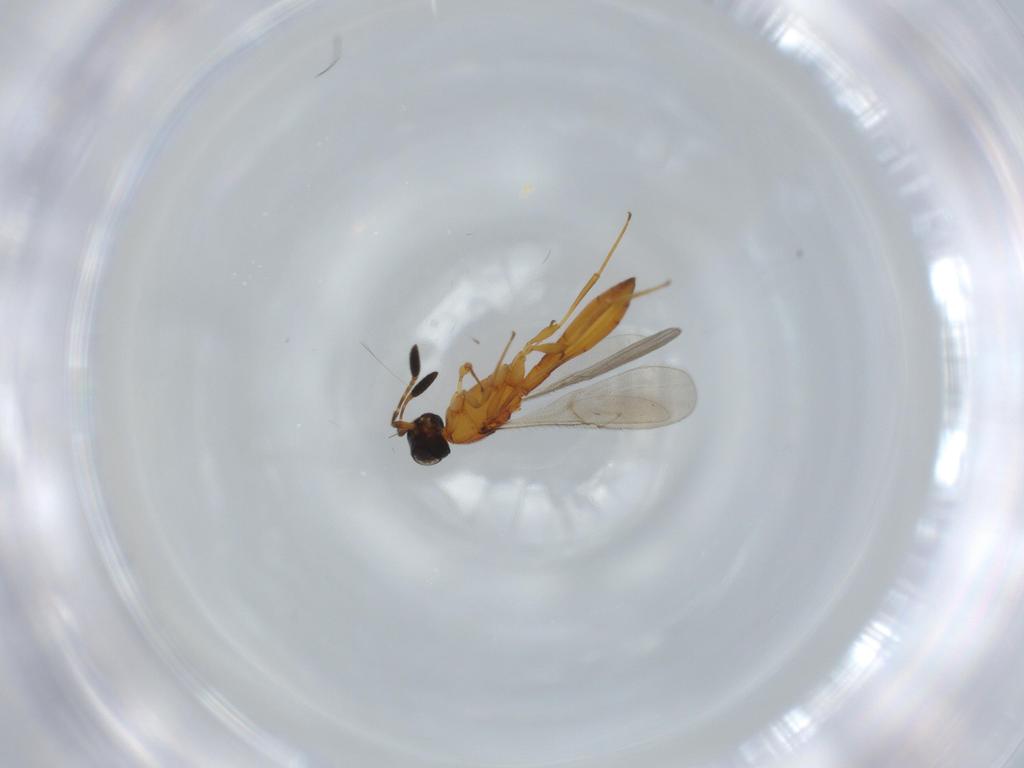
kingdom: Animalia
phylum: Arthropoda
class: Insecta
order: Hymenoptera
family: Scelionidae
